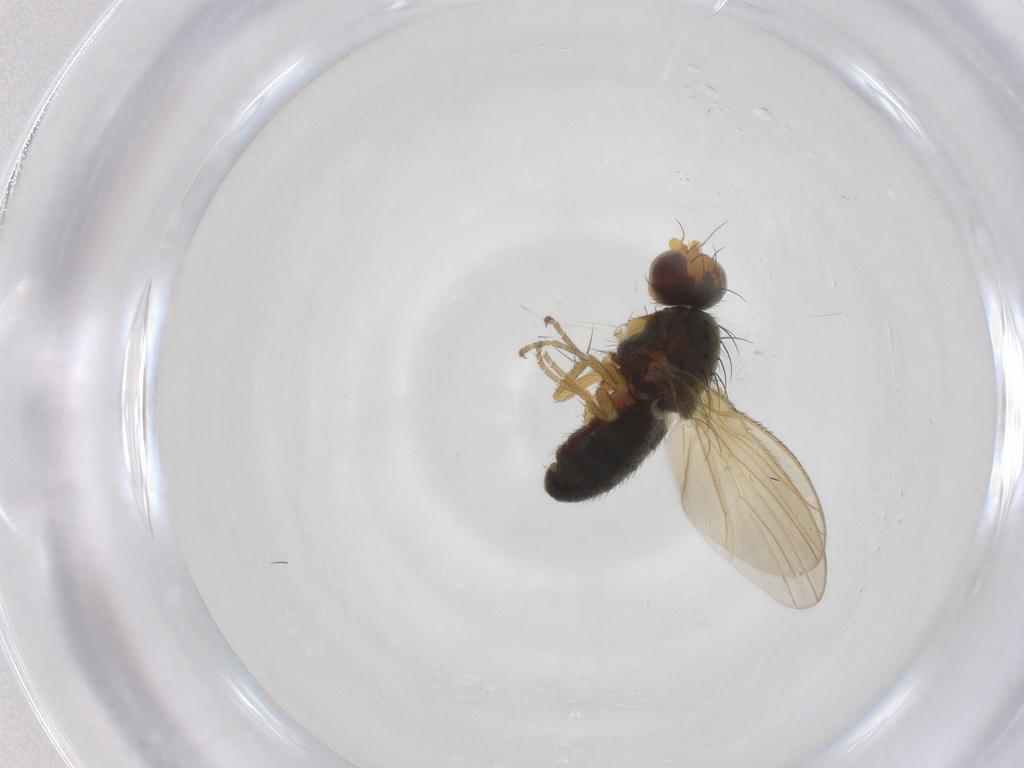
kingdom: Animalia
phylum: Arthropoda
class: Insecta
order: Diptera
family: Heleomyzidae
